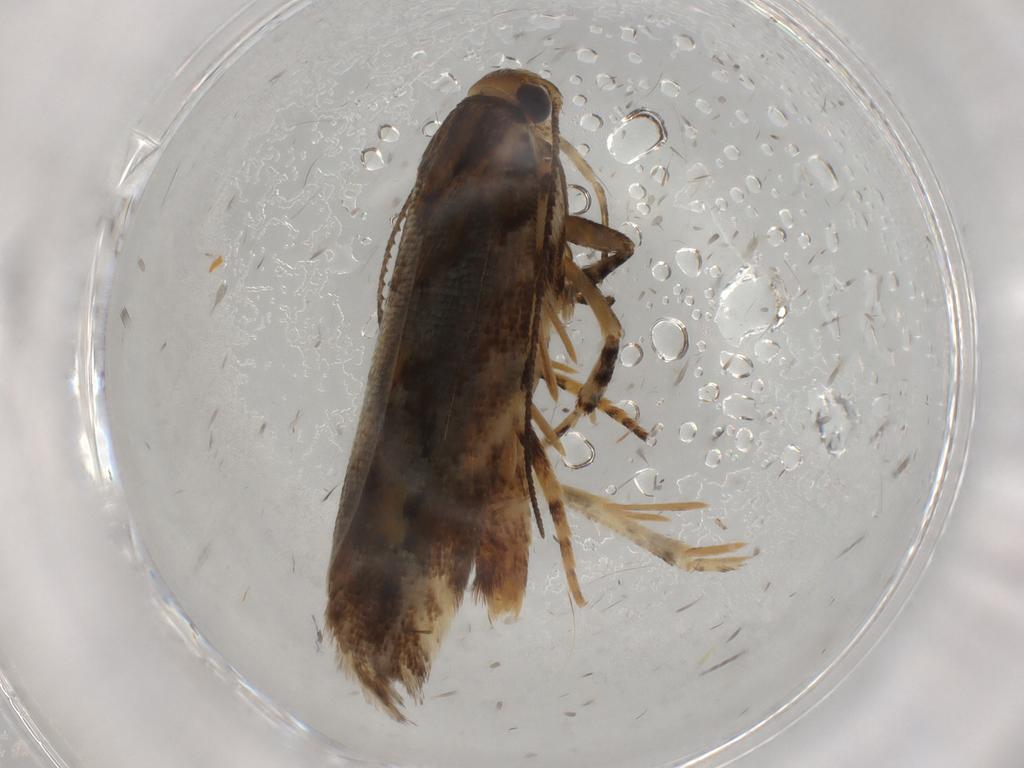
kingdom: Animalia
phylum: Arthropoda
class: Insecta
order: Lepidoptera
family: Gelechiidae
